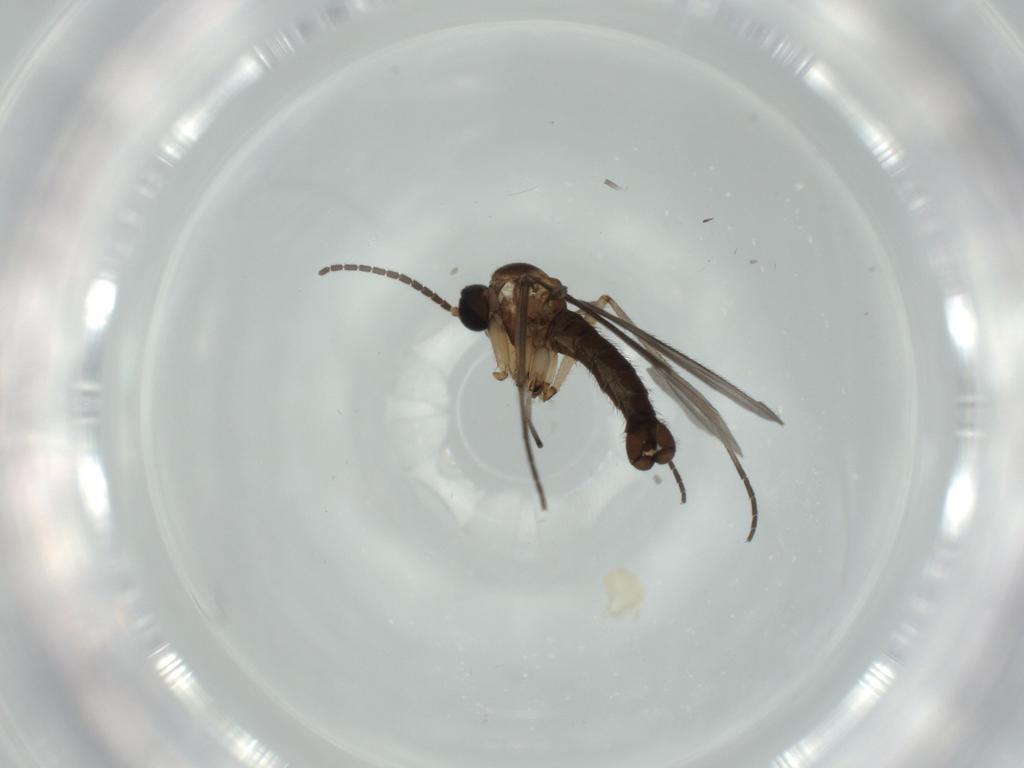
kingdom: Animalia
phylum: Arthropoda
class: Insecta
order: Diptera
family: Sciaridae
